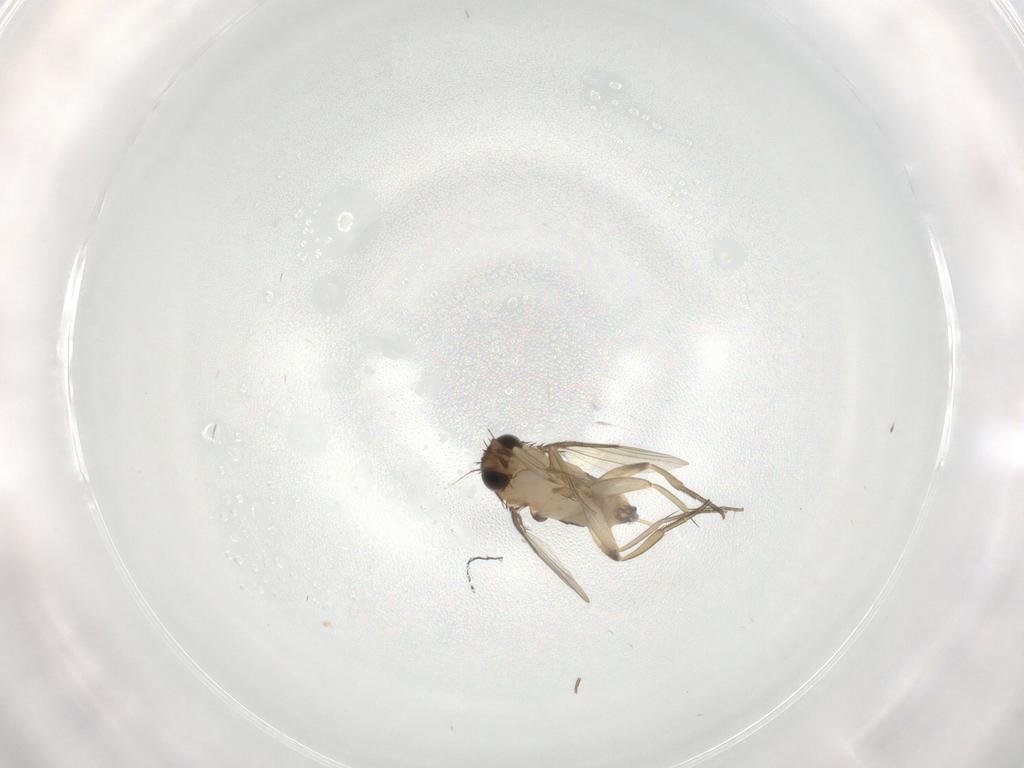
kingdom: Animalia
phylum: Arthropoda
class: Insecta
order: Diptera
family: Phoridae
